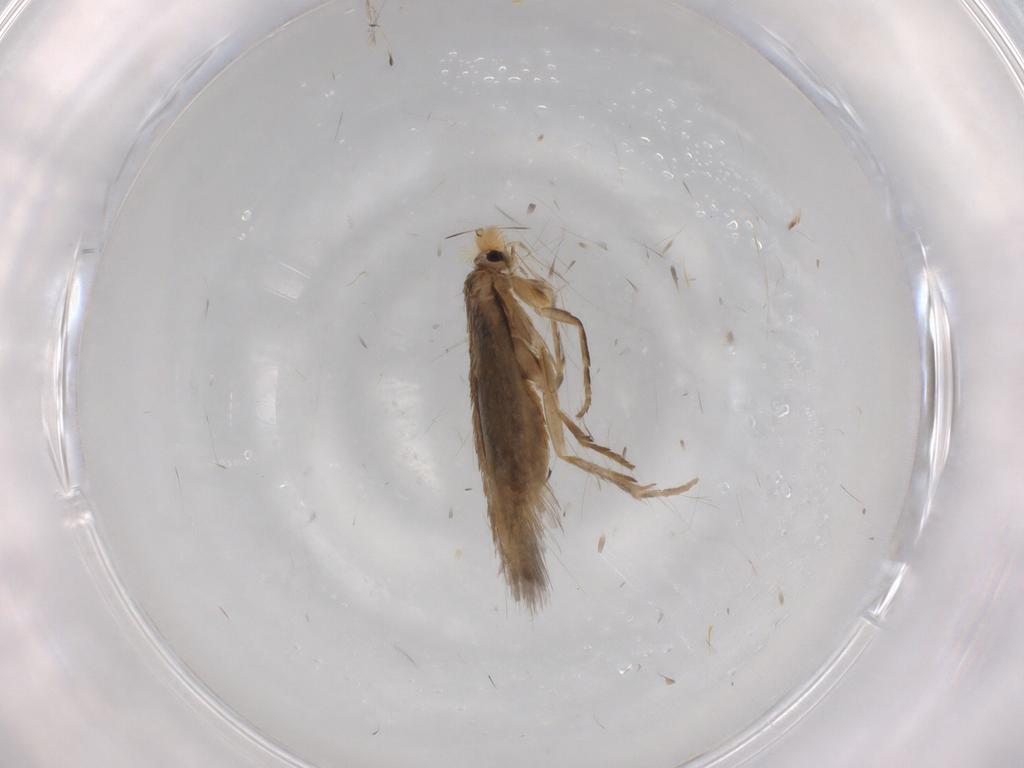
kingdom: Animalia
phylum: Arthropoda
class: Insecta
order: Lepidoptera
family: Nepticulidae
